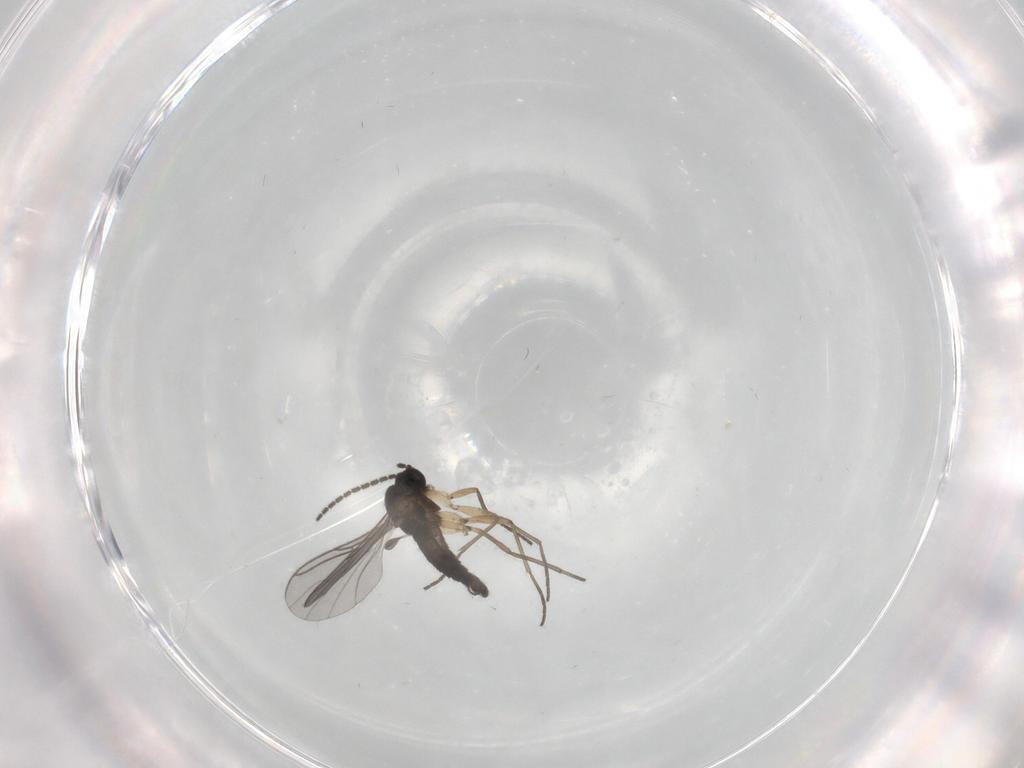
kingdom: Animalia
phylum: Arthropoda
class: Insecta
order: Diptera
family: Sciaridae
